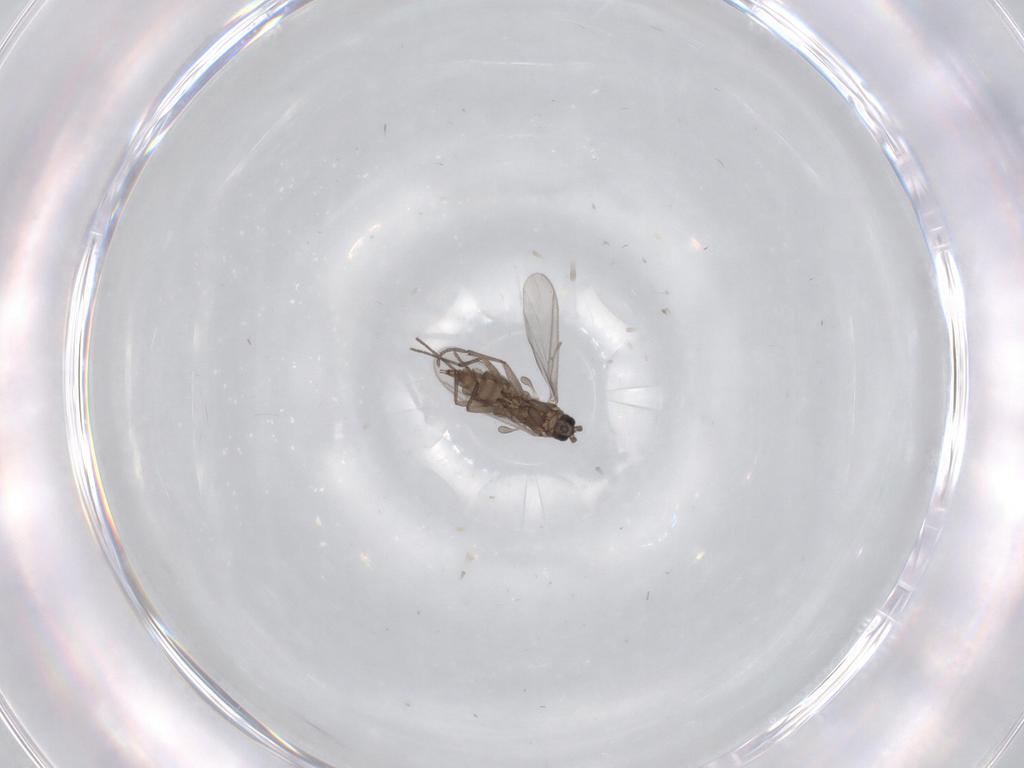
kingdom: Animalia
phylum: Arthropoda
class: Insecta
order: Diptera
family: Sciaridae
